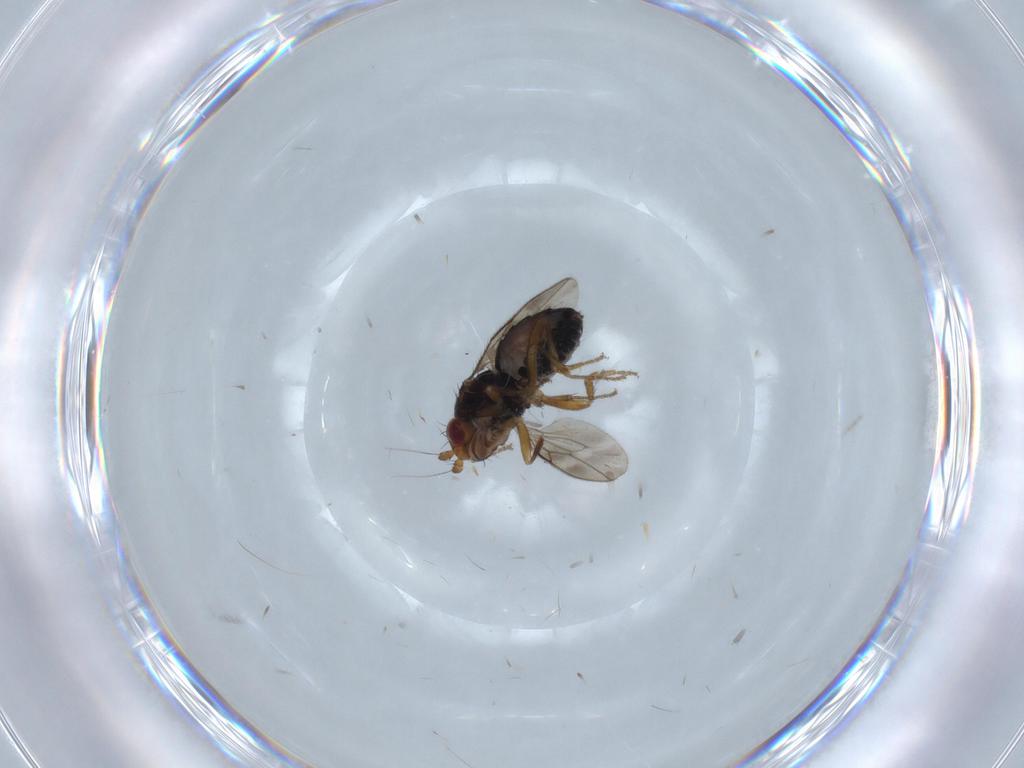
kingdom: Animalia
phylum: Arthropoda
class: Insecta
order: Diptera
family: Sphaeroceridae
